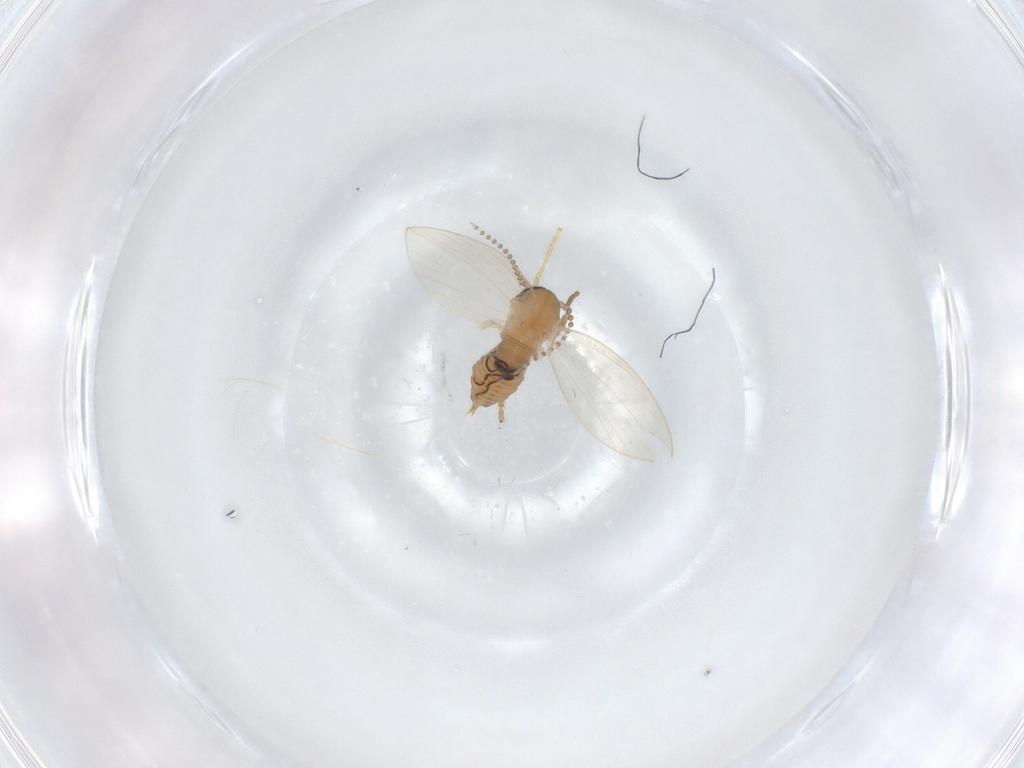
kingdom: Animalia
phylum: Arthropoda
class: Insecta
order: Diptera
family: Psychodidae
